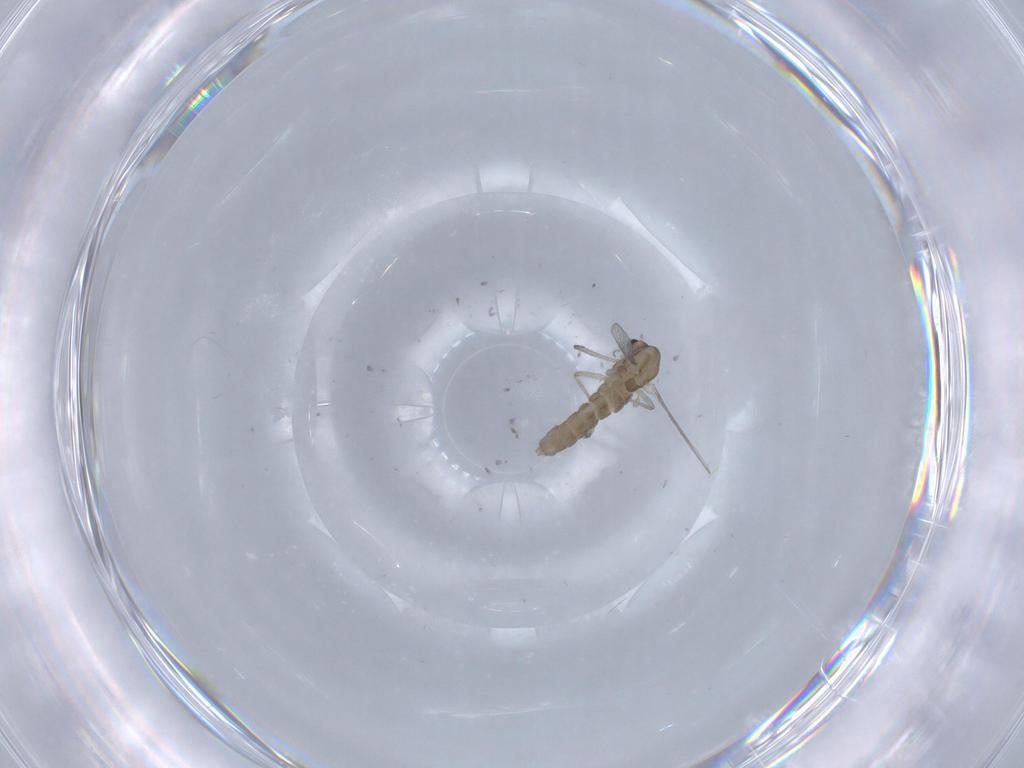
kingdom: Animalia
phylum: Arthropoda
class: Insecta
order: Diptera
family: Chironomidae
